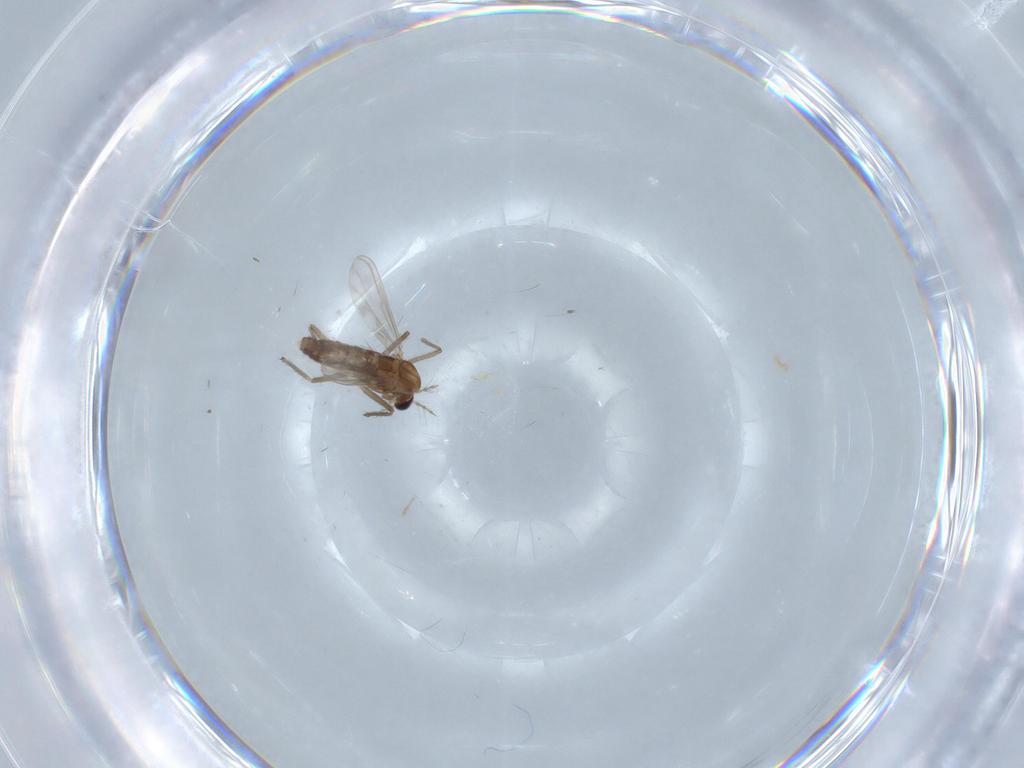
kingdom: Animalia
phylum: Arthropoda
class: Insecta
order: Diptera
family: Chironomidae
